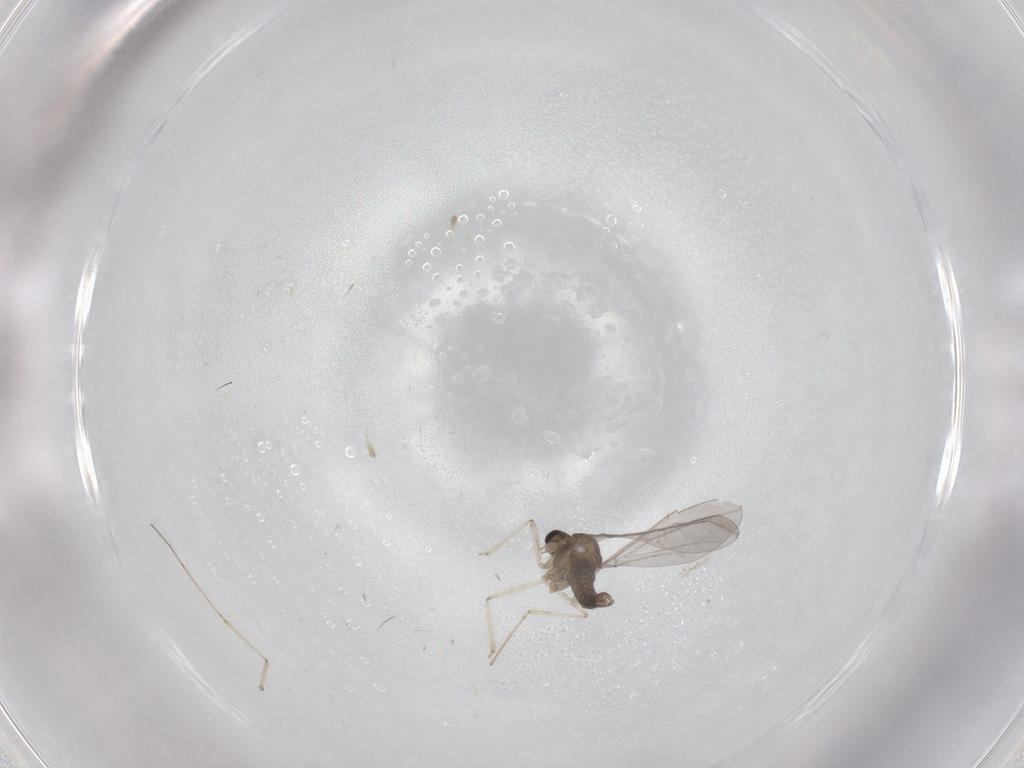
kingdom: Animalia
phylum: Arthropoda
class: Insecta
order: Diptera
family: Cecidomyiidae
